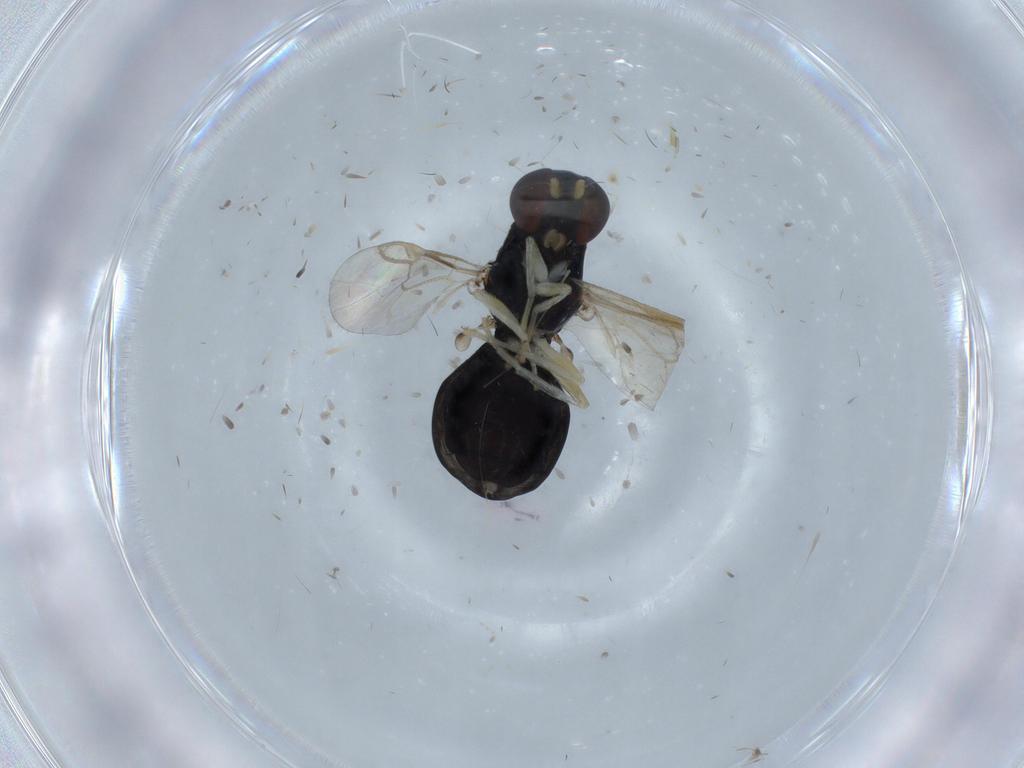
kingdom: Animalia
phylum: Arthropoda
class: Insecta
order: Diptera
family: Stratiomyidae
